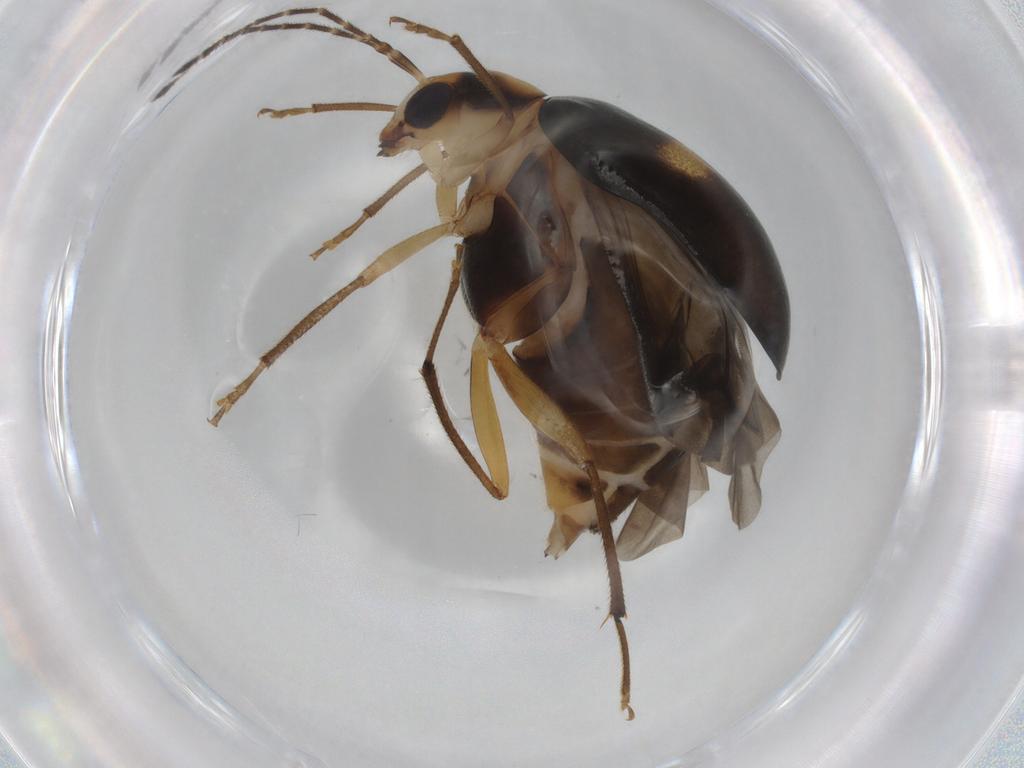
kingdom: Animalia
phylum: Arthropoda
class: Insecta
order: Coleoptera
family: Chrysomelidae
